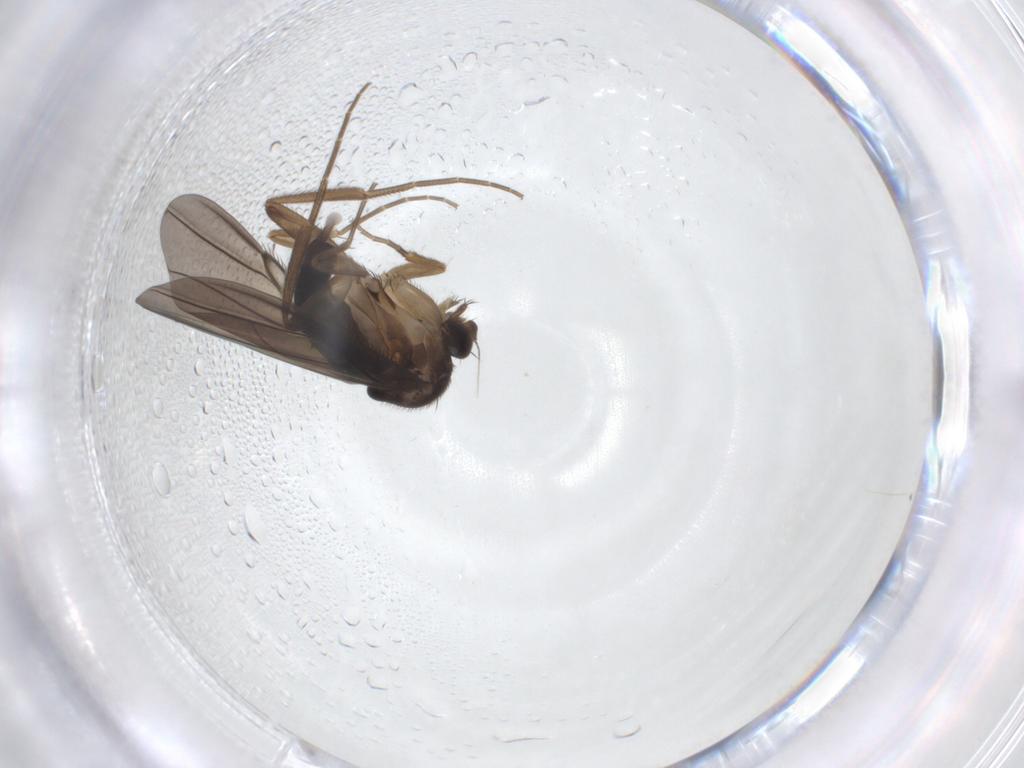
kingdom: Animalia
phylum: Arthropoda
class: Insecta
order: Diptera
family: Phoridae
